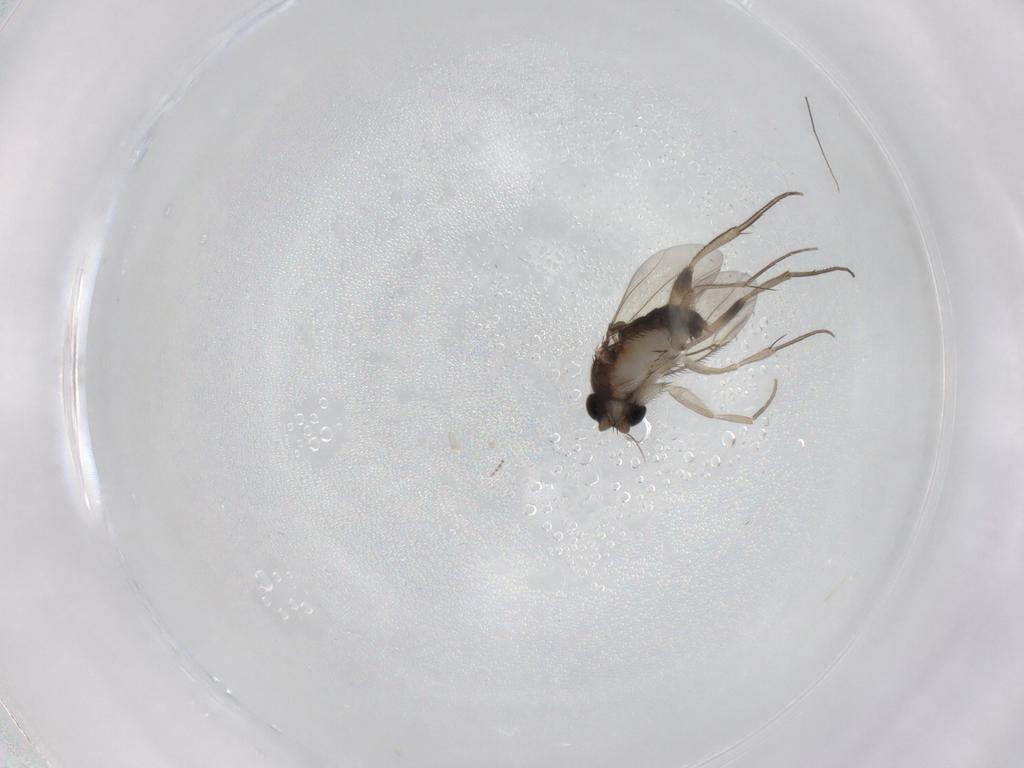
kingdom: Animalia
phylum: Arthropoda
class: Insecta
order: Diptera
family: Phoridae
